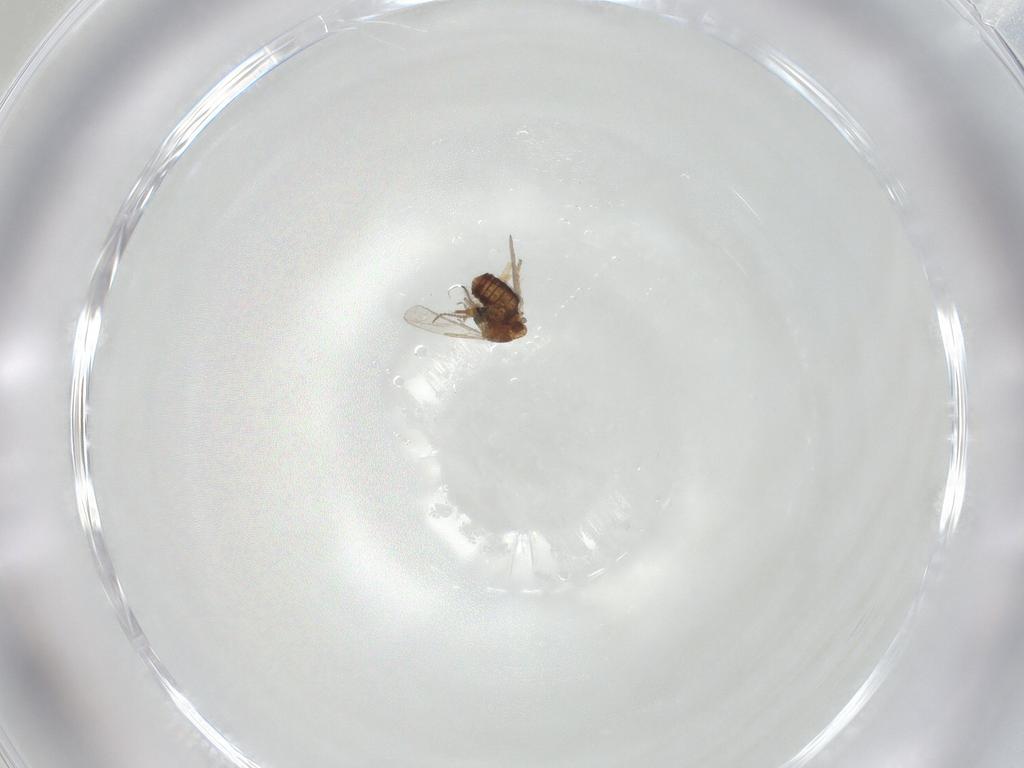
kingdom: Animalia
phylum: Arthropoda
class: Insecta
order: Diptera
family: Ceratopogonidae
